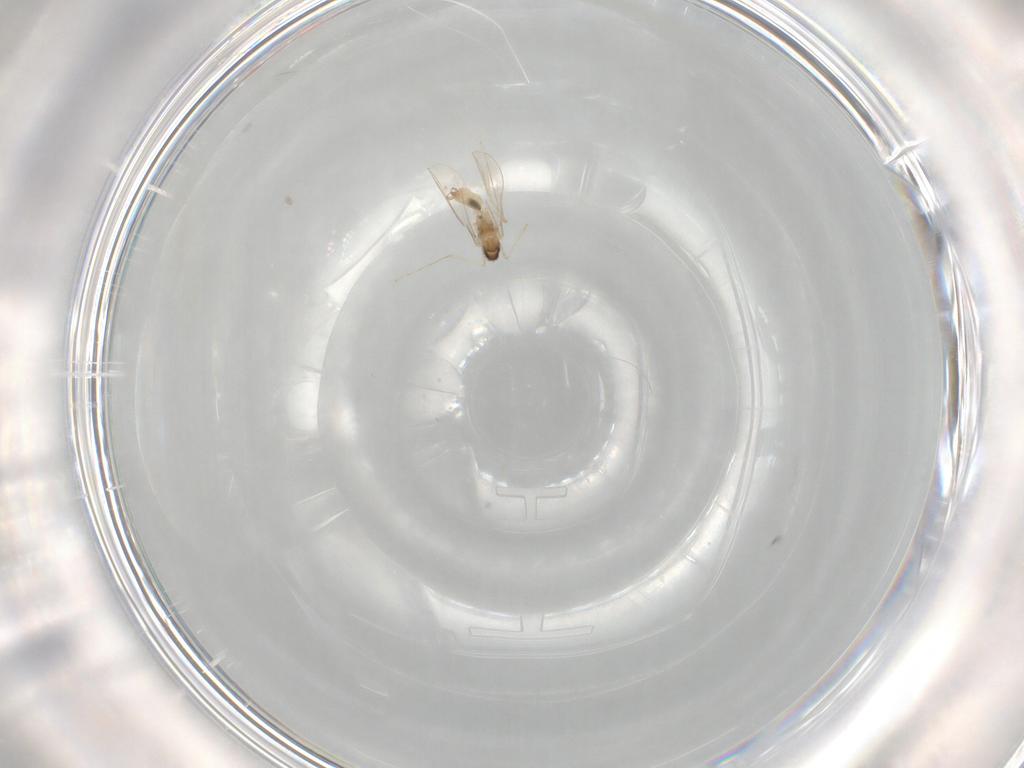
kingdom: Animalia
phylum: Arthropoda
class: Insecta
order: Diptera
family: Cecidomyiidae
